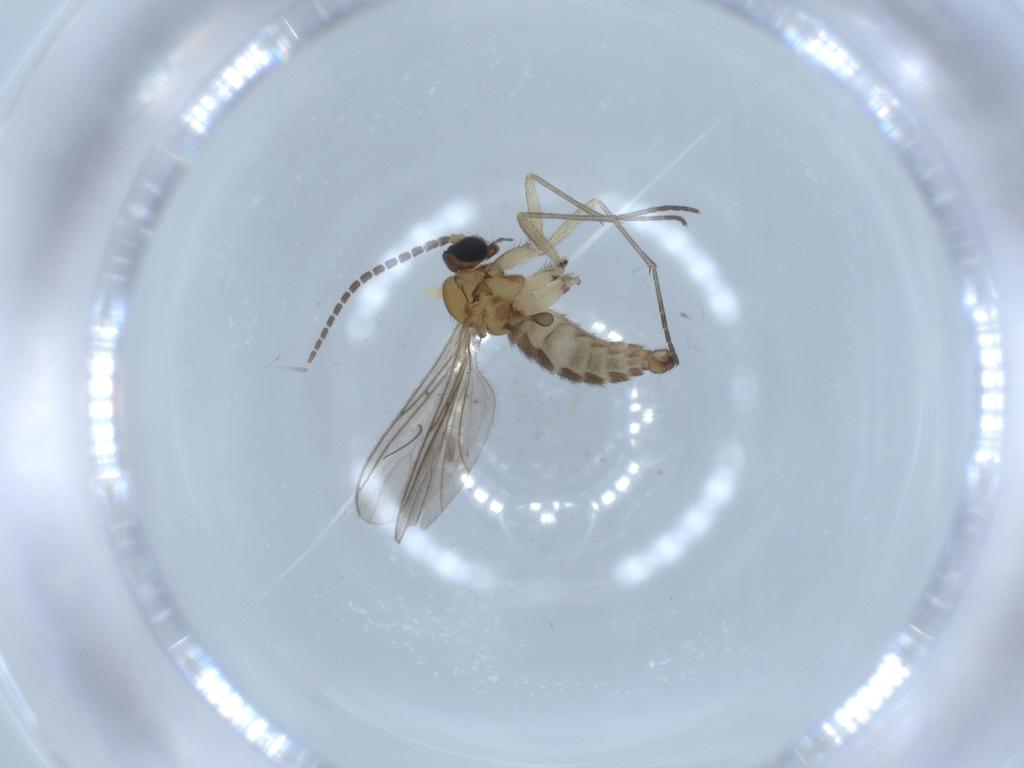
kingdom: Animalia
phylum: Arthropoda
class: Insecta
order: Diptera
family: Sciaridae
